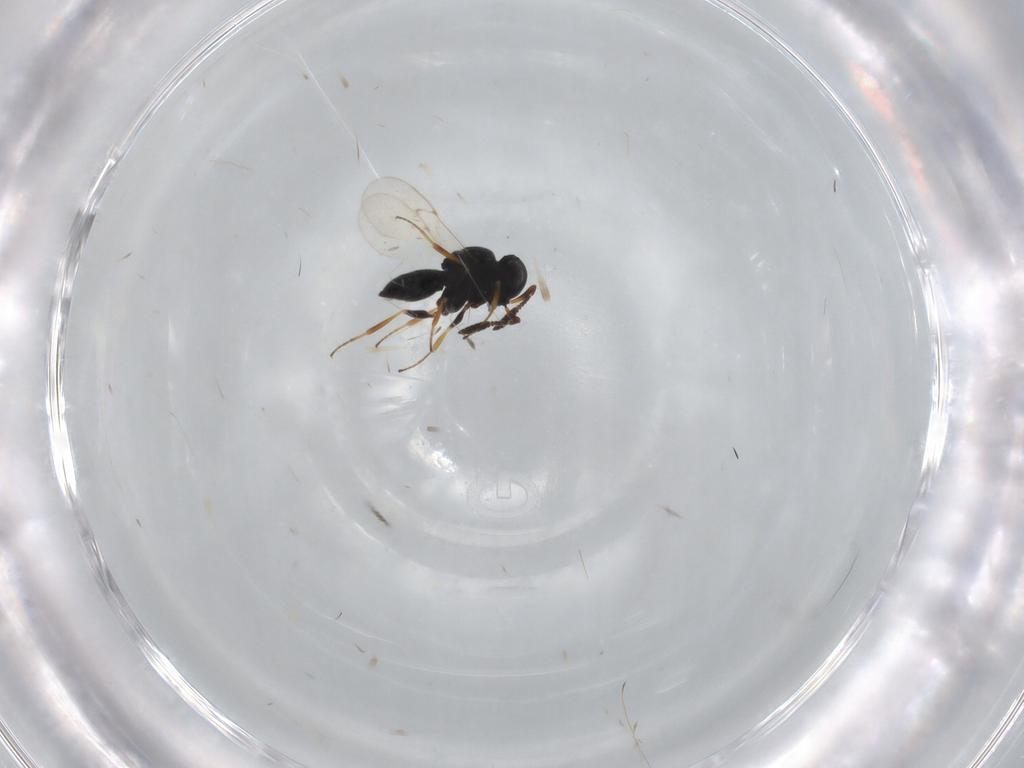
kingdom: Animalia
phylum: Arthropoda
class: Insecta
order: Coleoptera
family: Curculionidae
